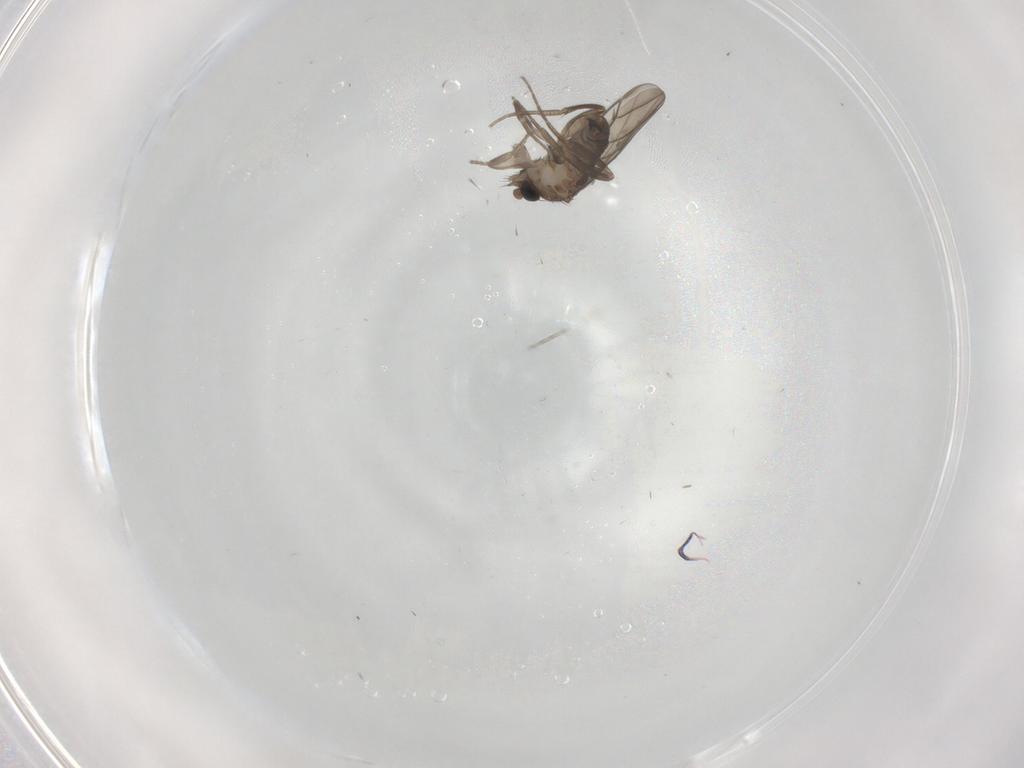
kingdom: Animalia
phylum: Arthropoda
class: Insecta
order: Diptera
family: Phoridae
